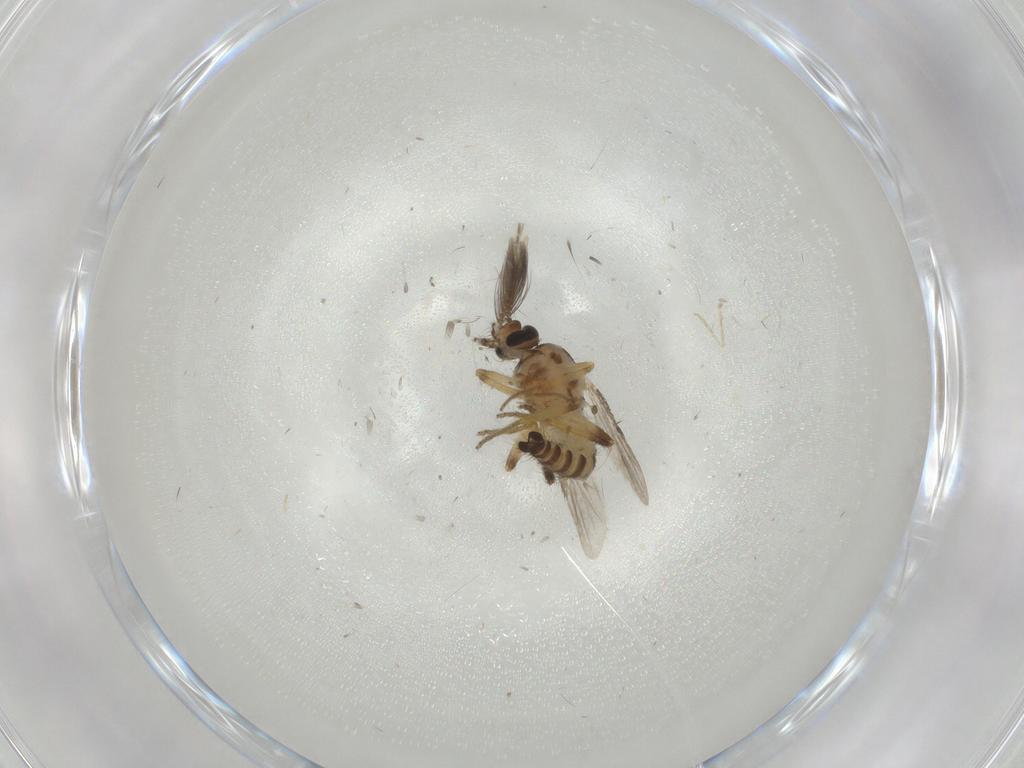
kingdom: Animalia
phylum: Arthropoda
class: Insecta
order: Diptera
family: Ceratopogonidae
